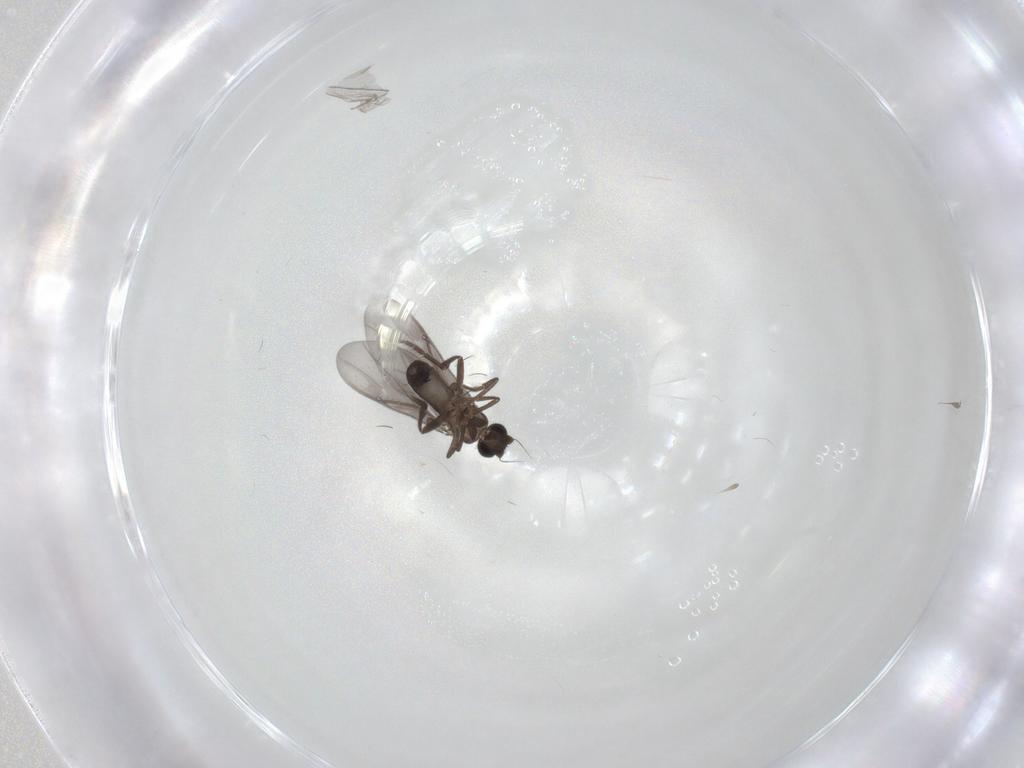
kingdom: Animalia
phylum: Arthropoda
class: Insecta
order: Diptera
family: Phoridae
